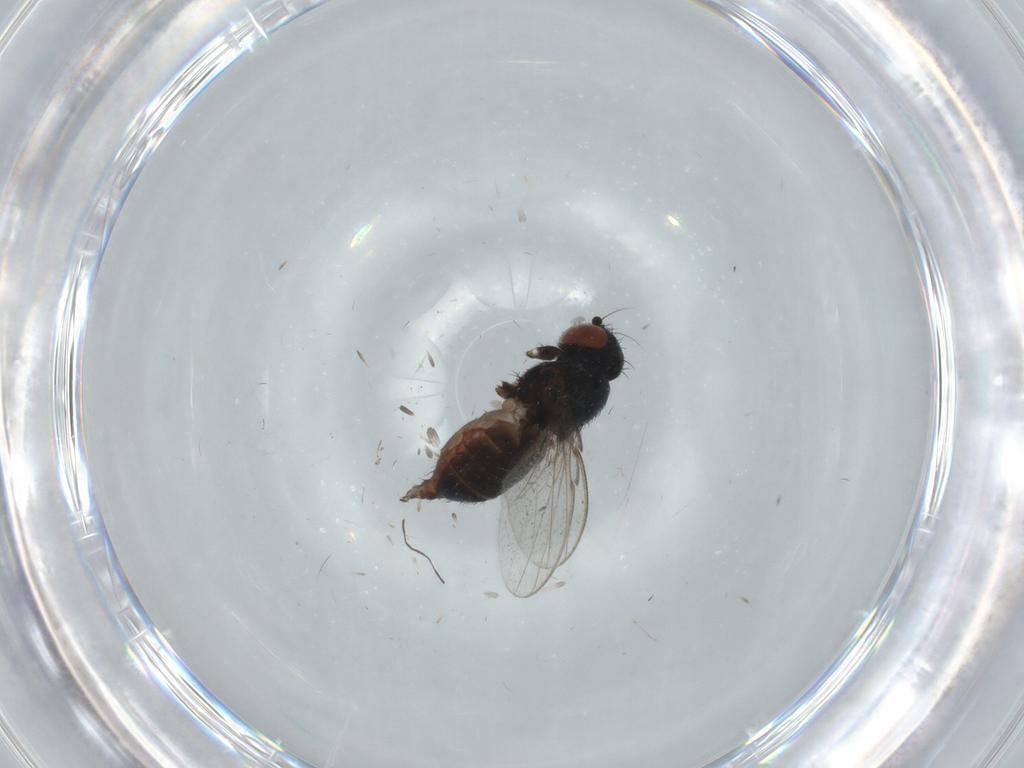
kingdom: Animalia
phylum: Arthropoda
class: Insecta
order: Diptera
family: Milichiidae
